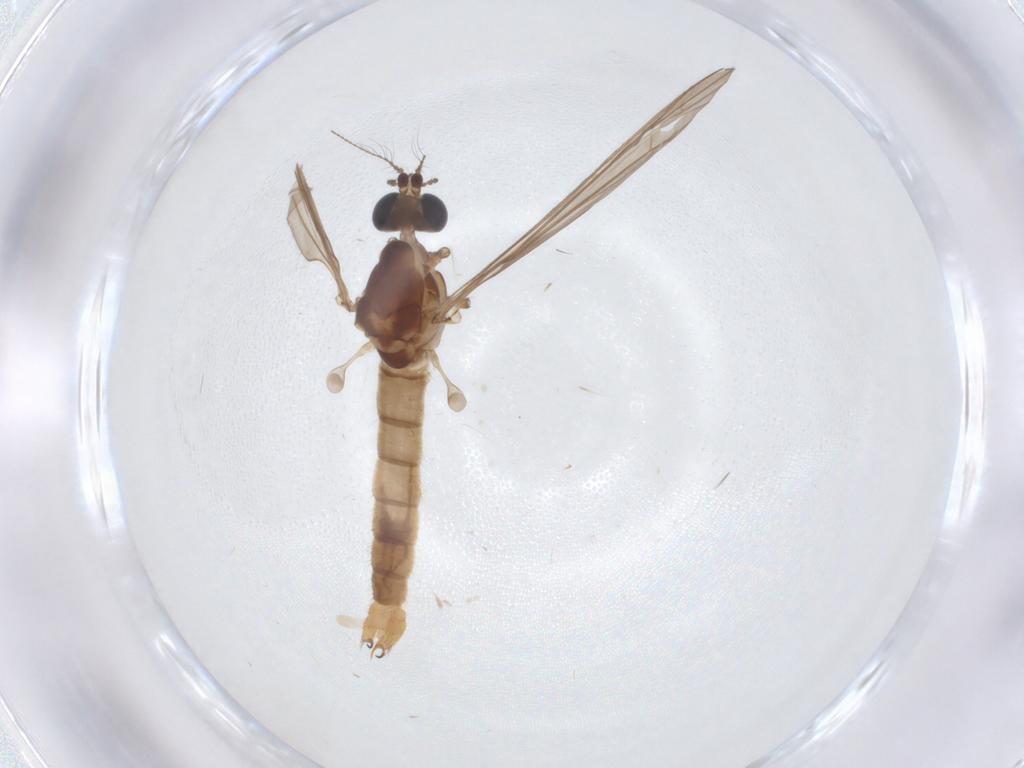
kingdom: Animalia
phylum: Arthropoda
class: Insecta
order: Diptera
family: Limoniidae
